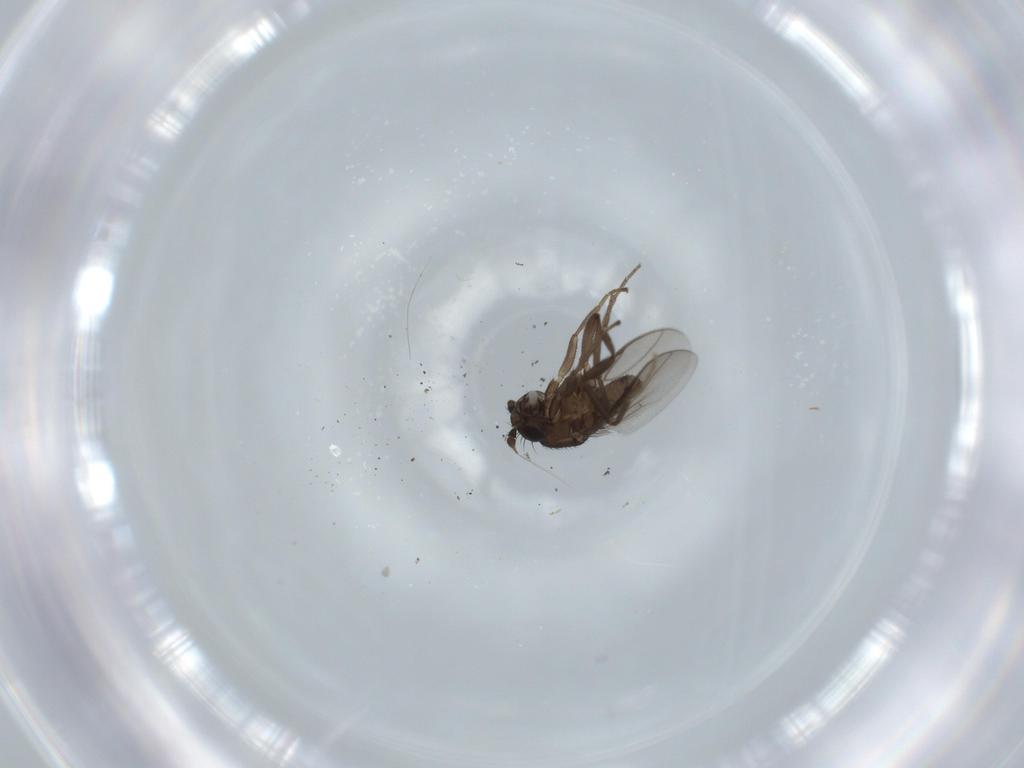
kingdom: Animalia
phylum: Arthropoda
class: Insecta
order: Diptera
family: Sphaeroceridae
